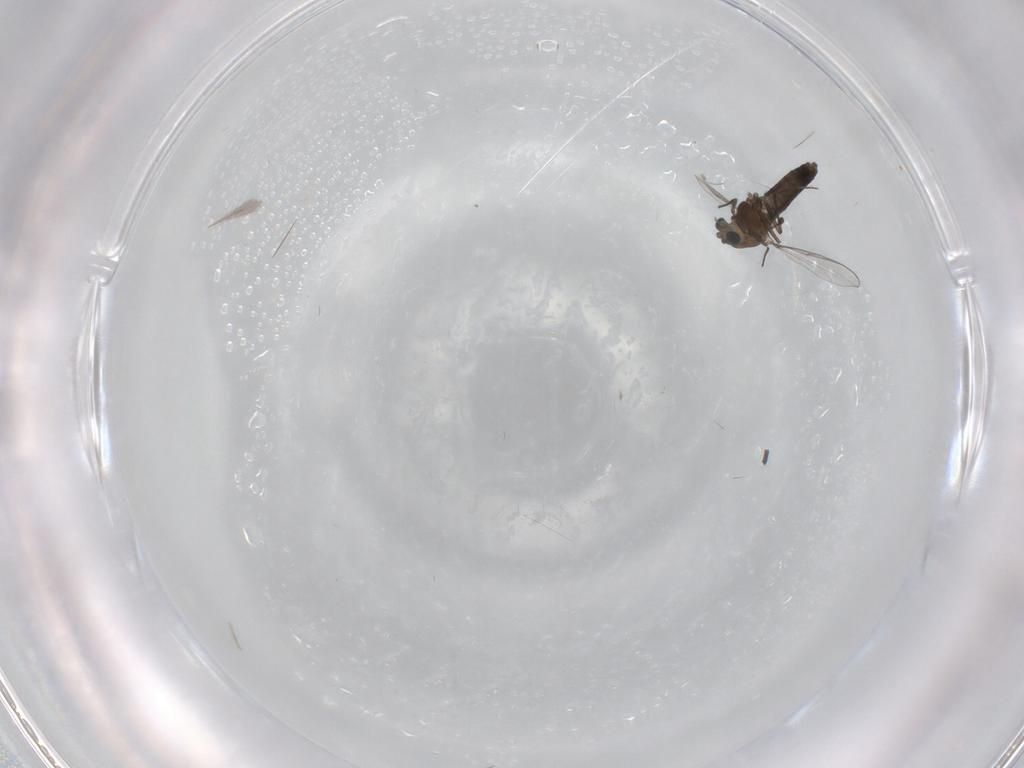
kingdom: Animalia
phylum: Arthropoda
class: Insecta
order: Diptera
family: Chironomidae
